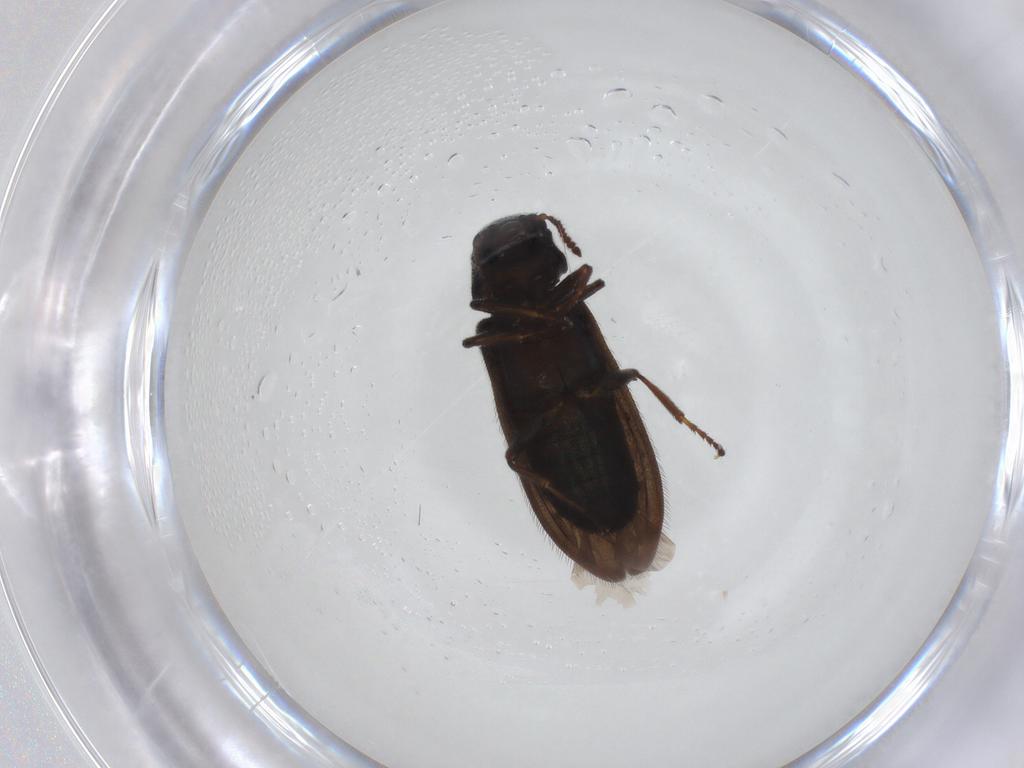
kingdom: Animalia
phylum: Arthropoda
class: Insecta
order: Coleoptera
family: Melyridae
